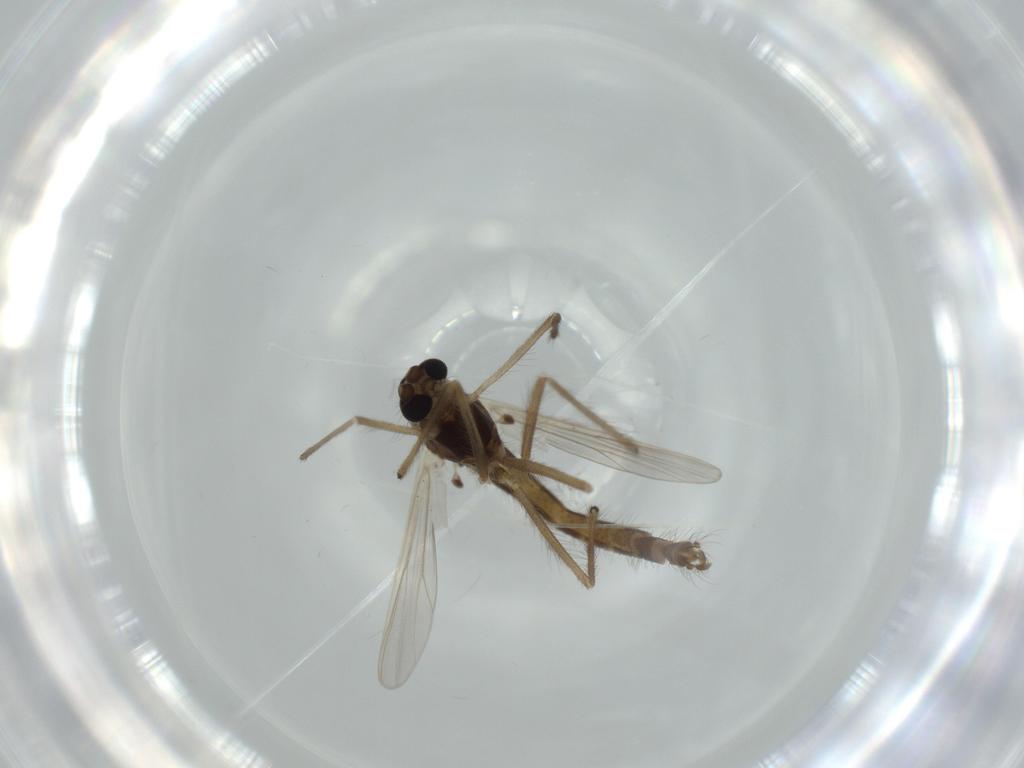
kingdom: Animalia
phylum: Arthropoda
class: Insecta
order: Diptera
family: Chironomidae
